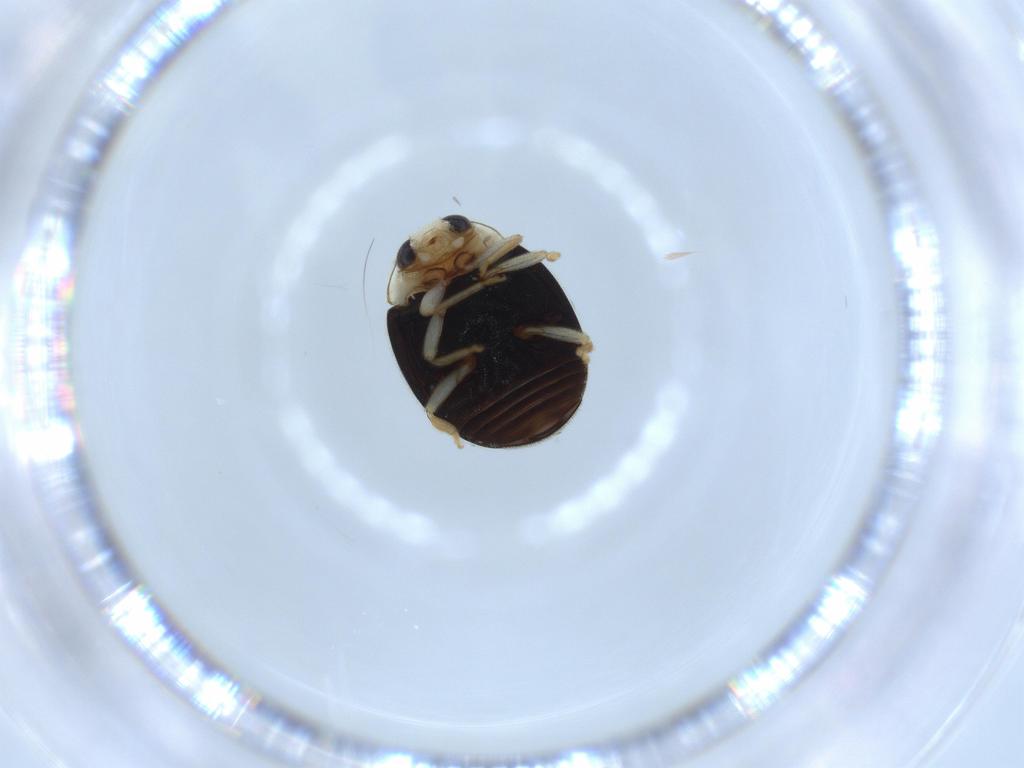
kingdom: Animalia
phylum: Arthropoda
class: Insecta
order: Coleoptera
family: Coccinellidae
